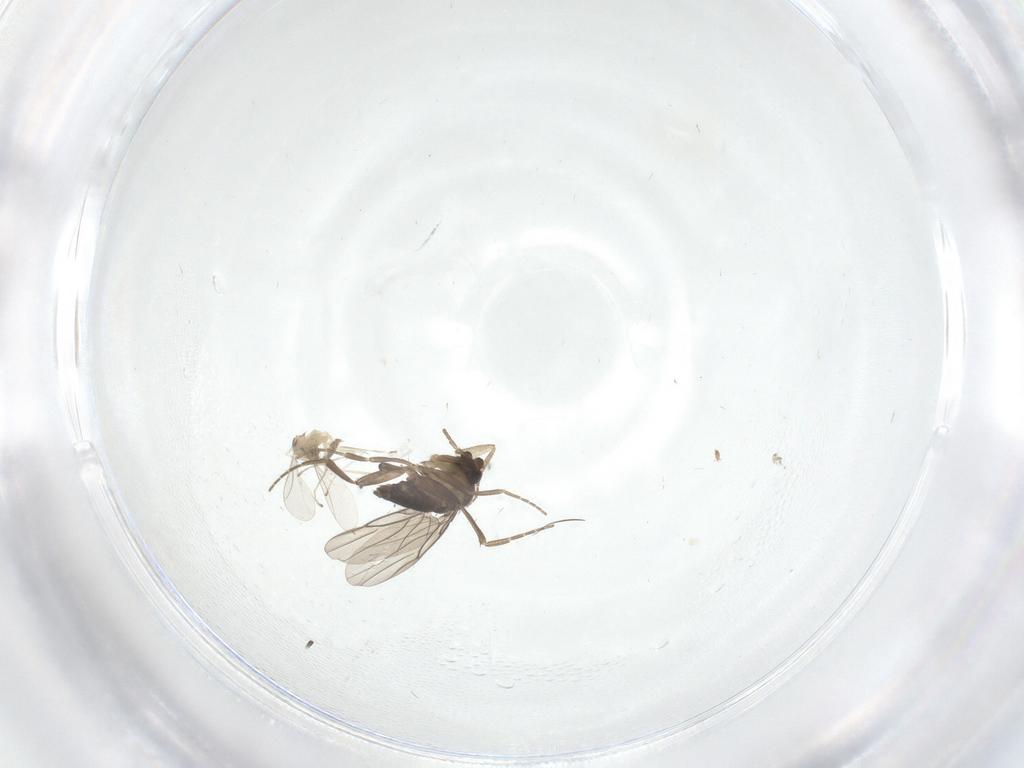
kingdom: Animalia
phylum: Arthropoda
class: Insecta
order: Diptera
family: Cecidomyiidae
